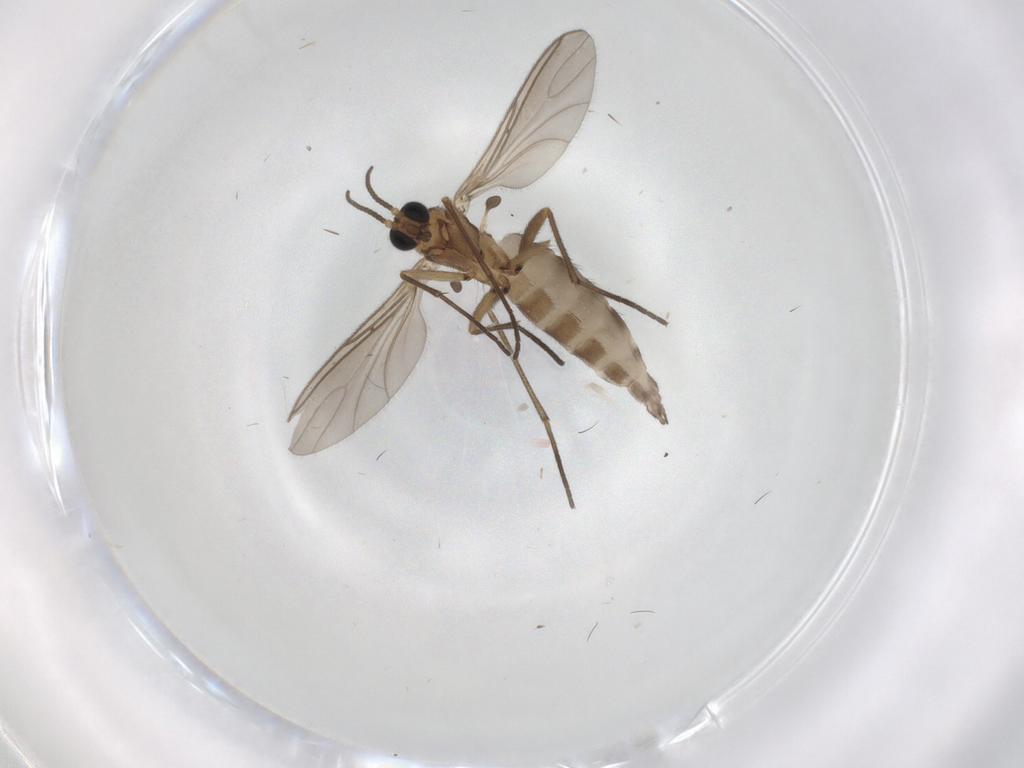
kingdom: Animalia
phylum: Arthropoda
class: Insecta
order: Diptera
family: Sciaridae
